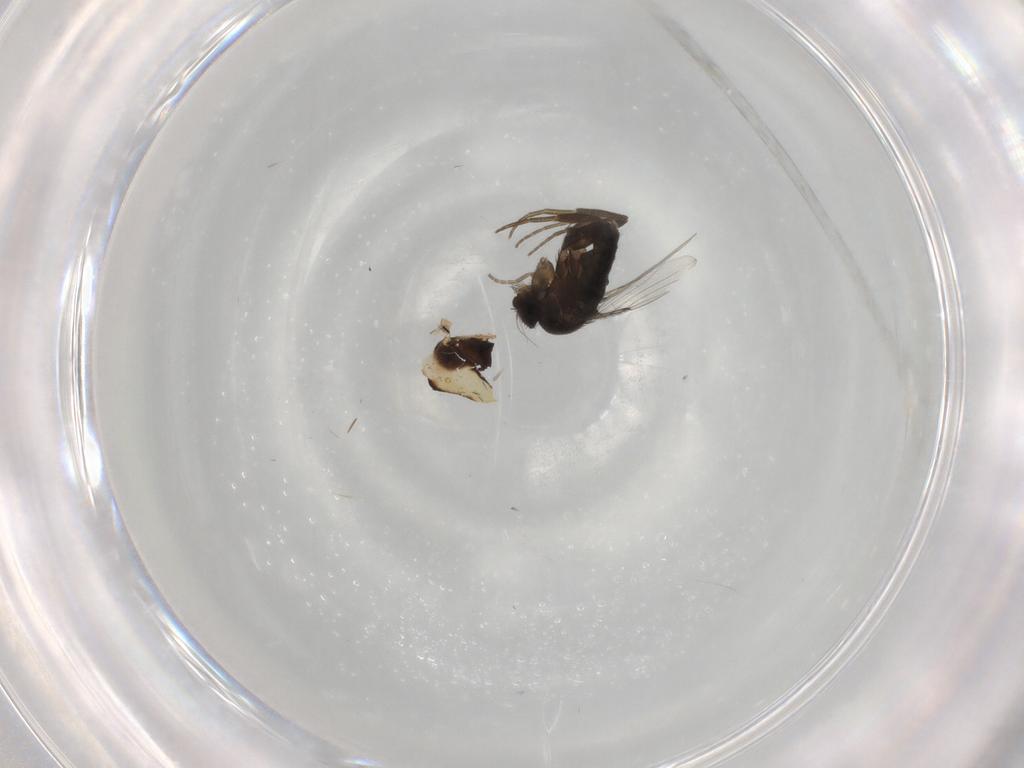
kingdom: Animalia
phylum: Arthropoda
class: Insecta
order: Diptera
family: Phoridae
